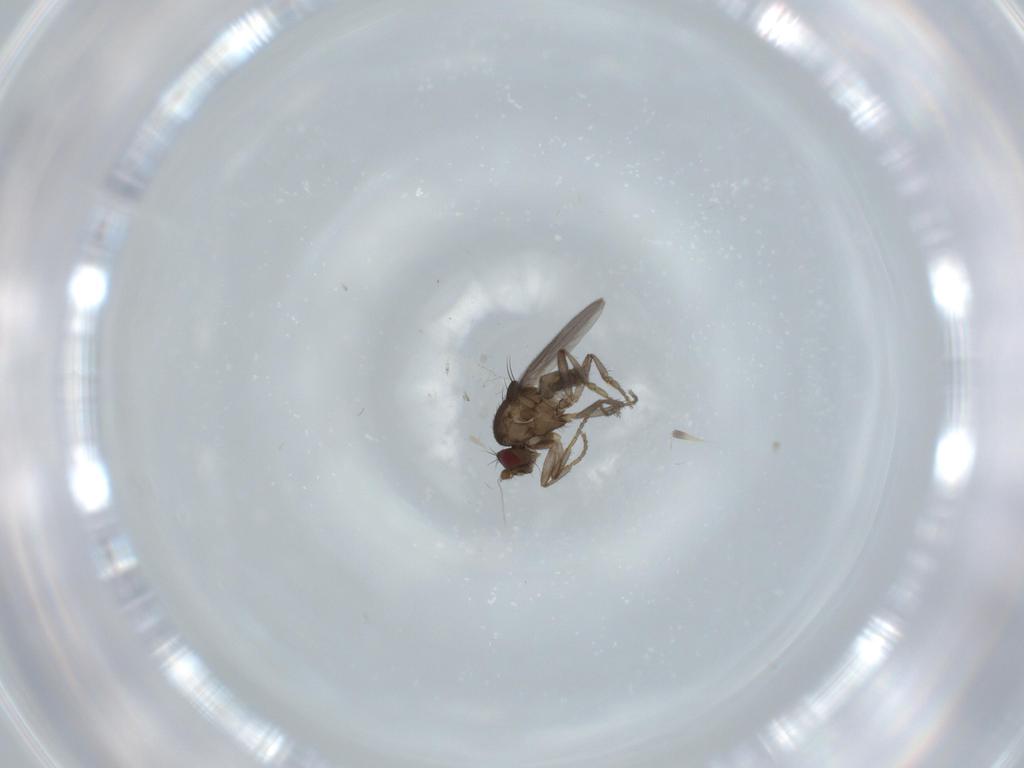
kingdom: Animalia
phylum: Arthropoda
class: Insecta
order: Diptera
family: Sphaeroceridae
